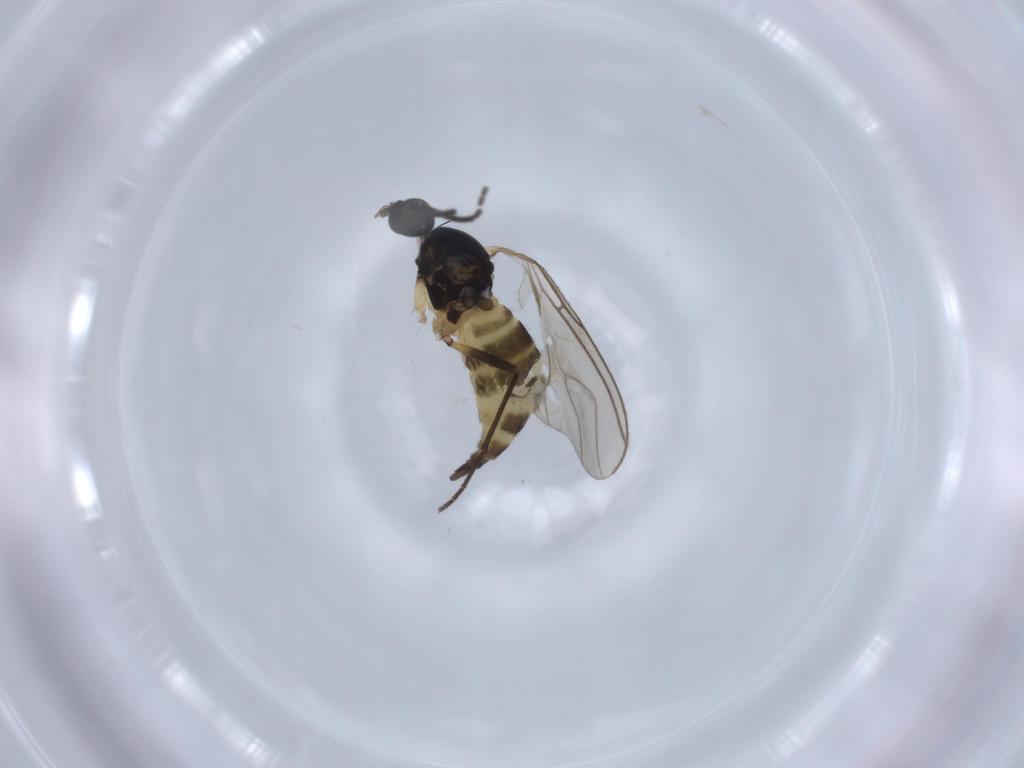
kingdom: Animalia
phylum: Arthropoda
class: Insecta
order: Diptera
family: Sciaridae
